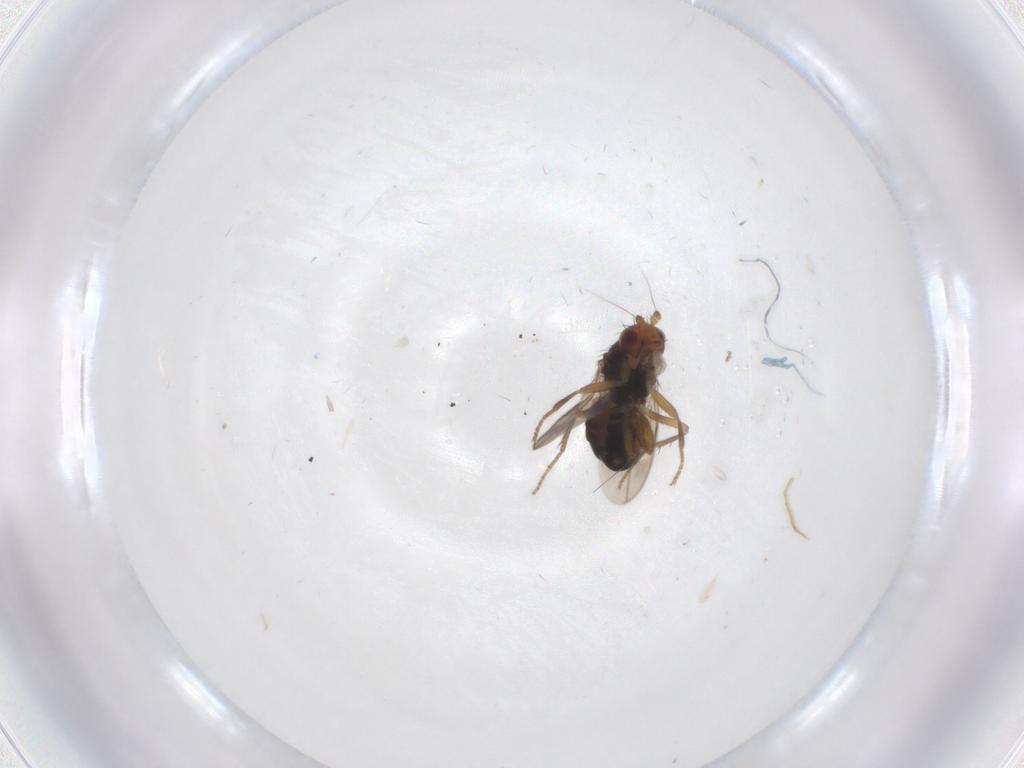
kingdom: Animalia
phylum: Arthropoda
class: Insecta
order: Diptera
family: Sphaeroceridae
